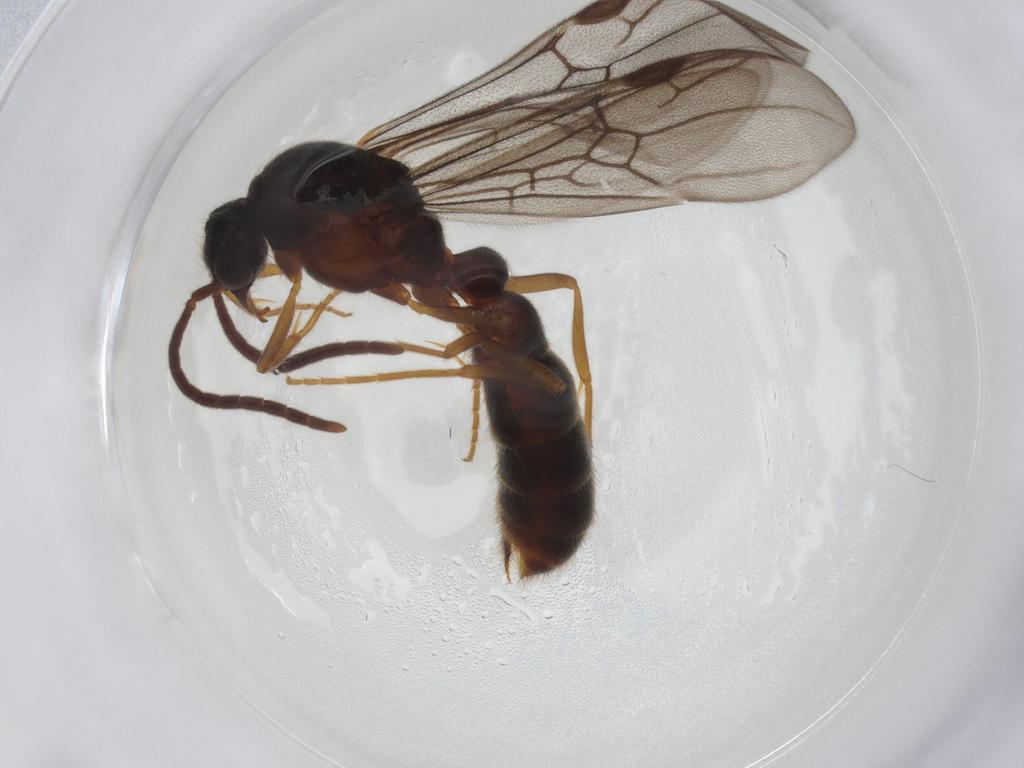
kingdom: Animalia
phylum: Arthropoda
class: Insecta
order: Hymenoptera
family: Formicidae
